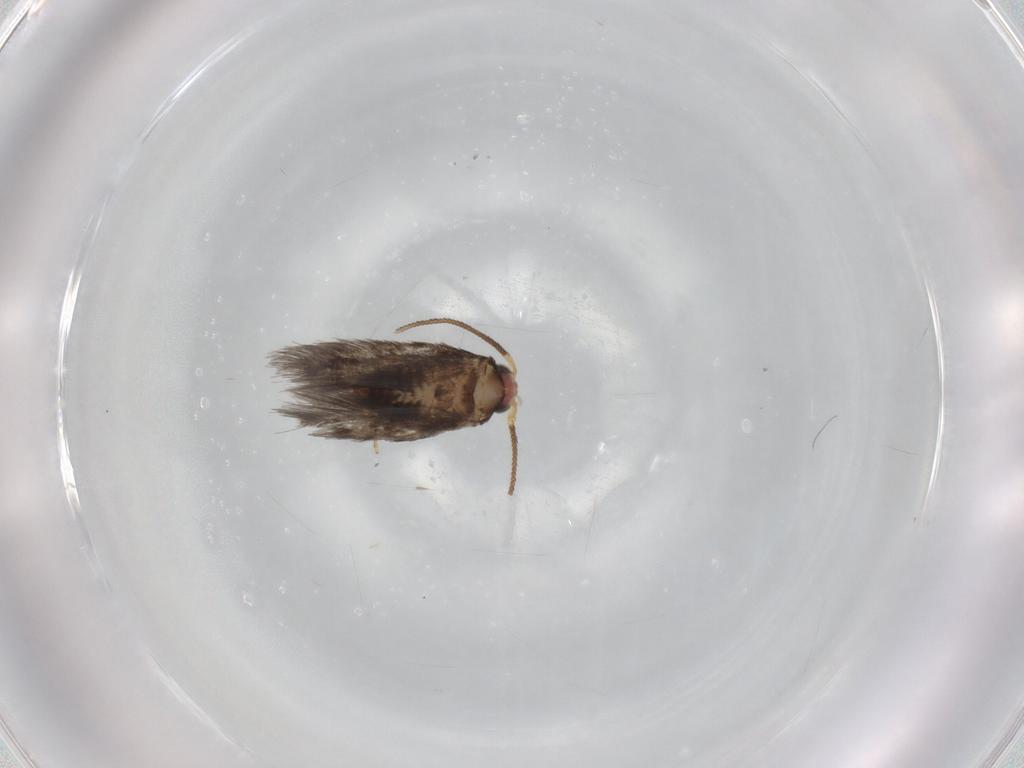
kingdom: Animalia
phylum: Arthropoda
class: Insecta
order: Lepidoptera
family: Nepticulidae
